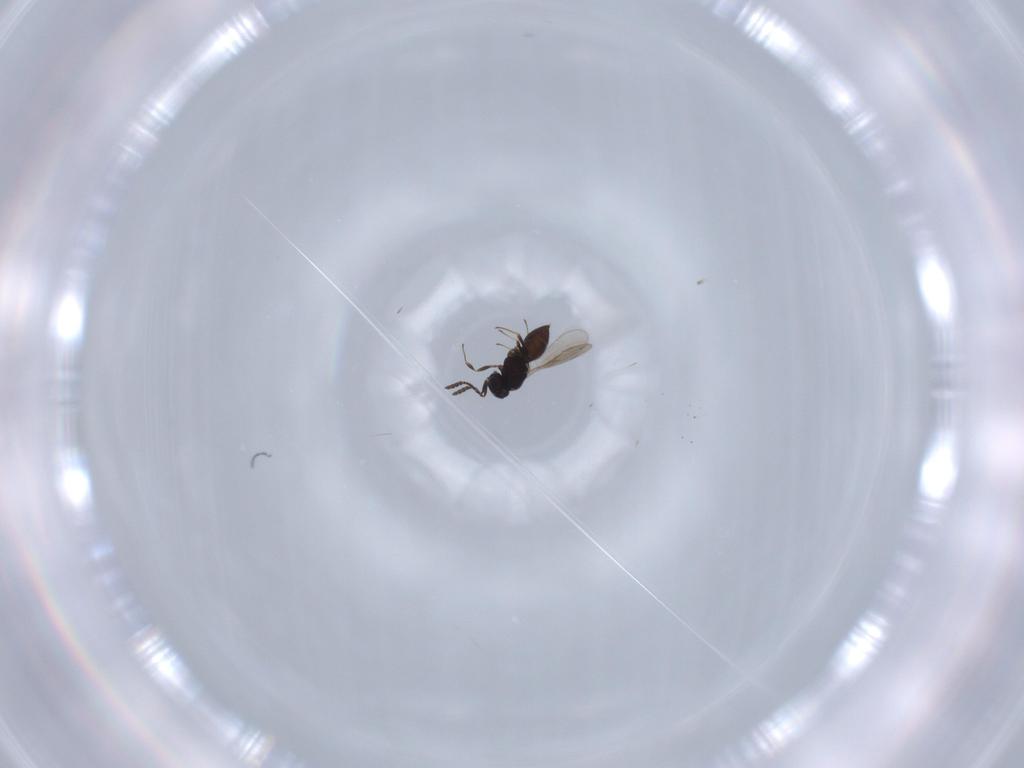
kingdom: Animalia
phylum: Arthropoda
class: Insecta
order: Hymenoptera
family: Scelionidae
